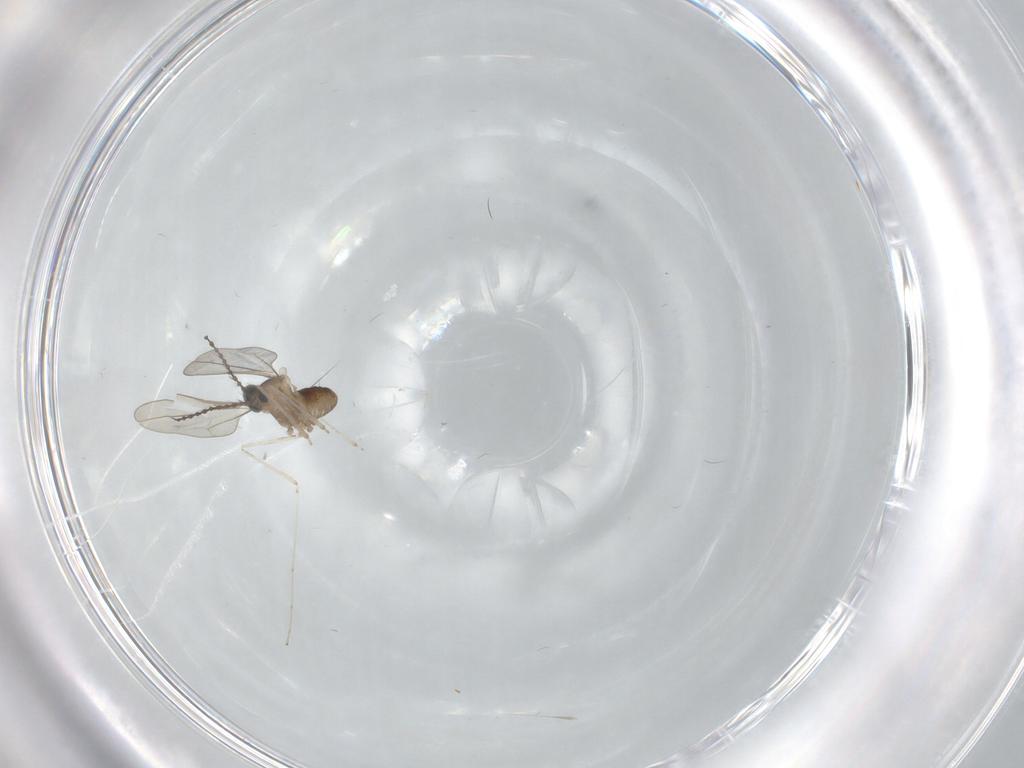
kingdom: Animalia
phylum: Arthropoda
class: Insecta
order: Diptera
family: Cecidomyiidae
